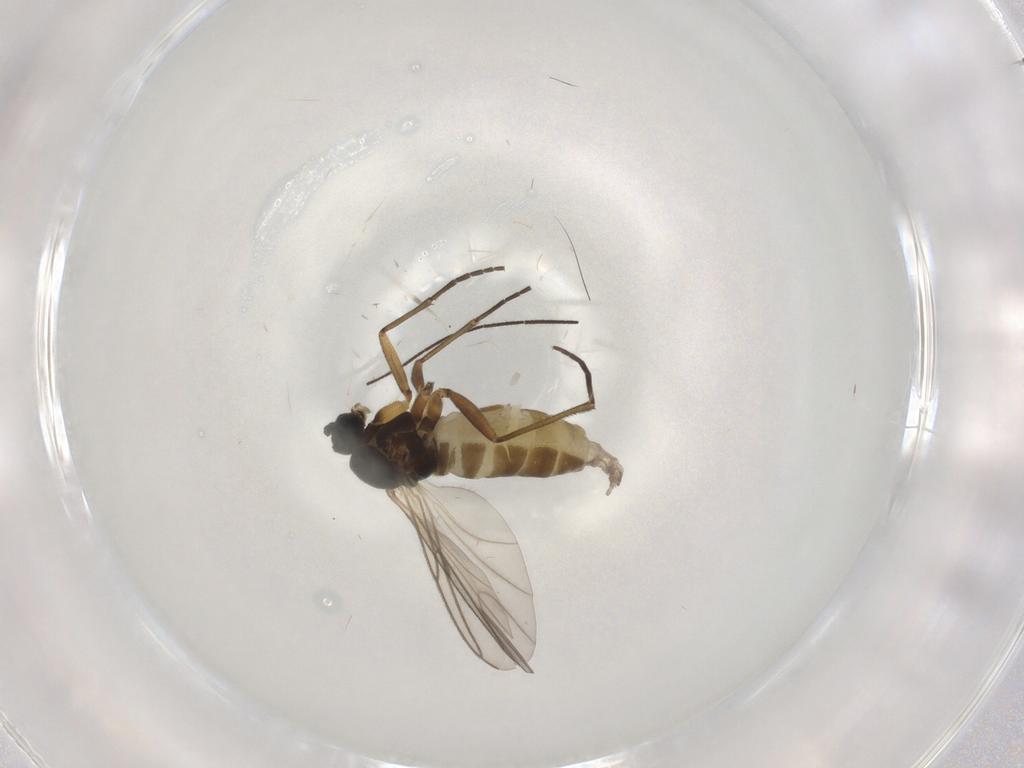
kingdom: Animalia
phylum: Arthropoda
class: Insecta
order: Diptera
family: Sciaridae
